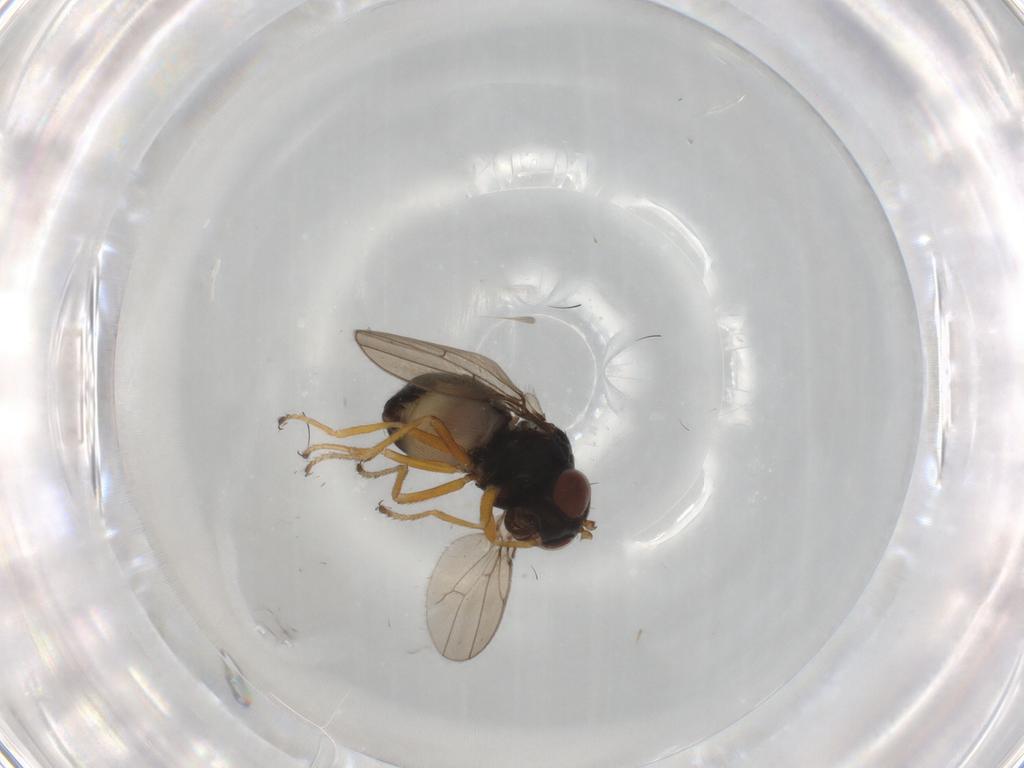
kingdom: Animalia
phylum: Arthropoda
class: Insecta
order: Diptera
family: Ephydridae
